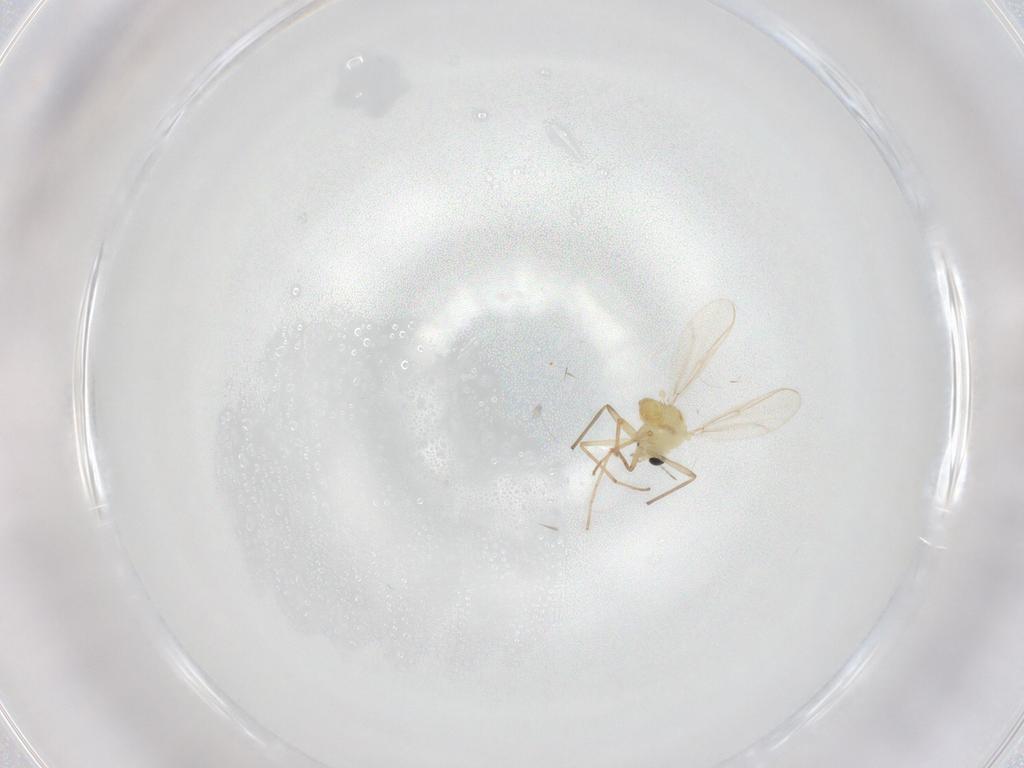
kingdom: Animalia
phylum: Arthropoda
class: Insecta
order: Diptera
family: Chironomidae
